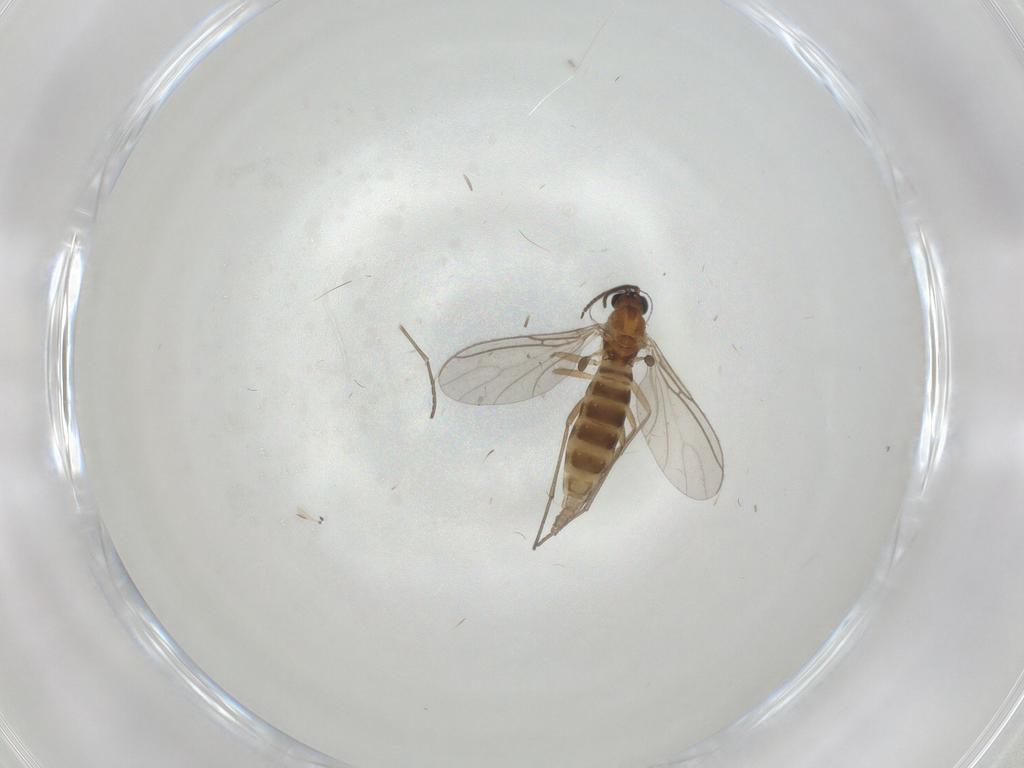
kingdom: Animalia
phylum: Arthropoda
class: Insecta
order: Diptera
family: Sciaridae
